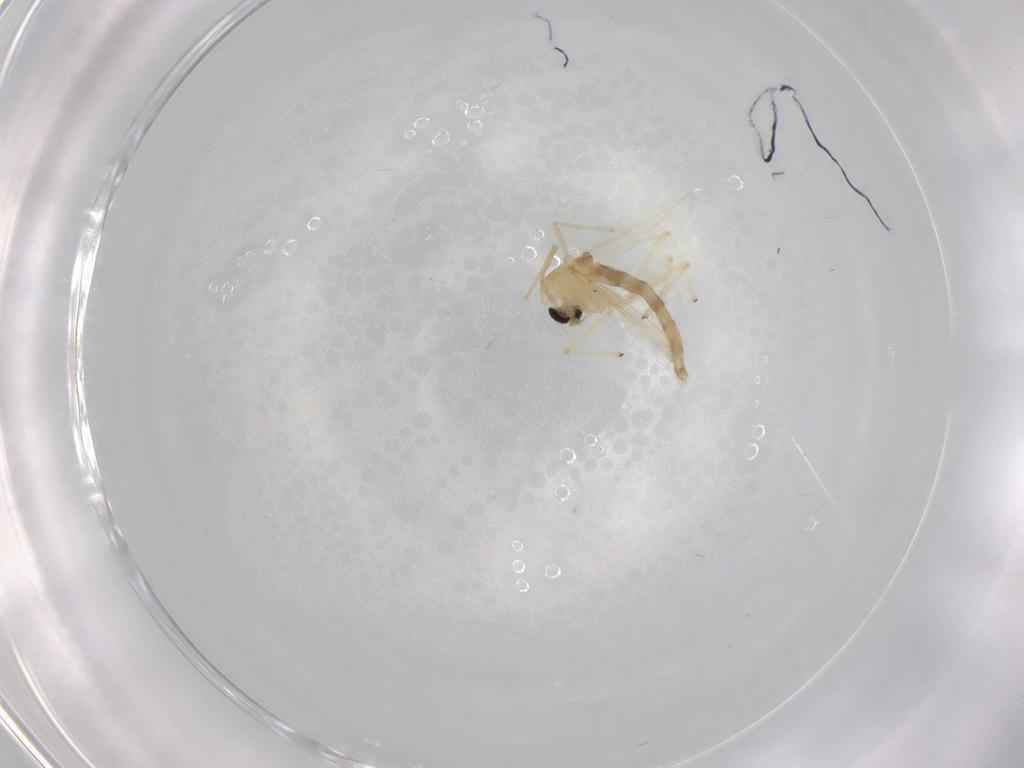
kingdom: Animalia
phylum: Arthropoda
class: Insecta
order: Diptera
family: Chironomidae
